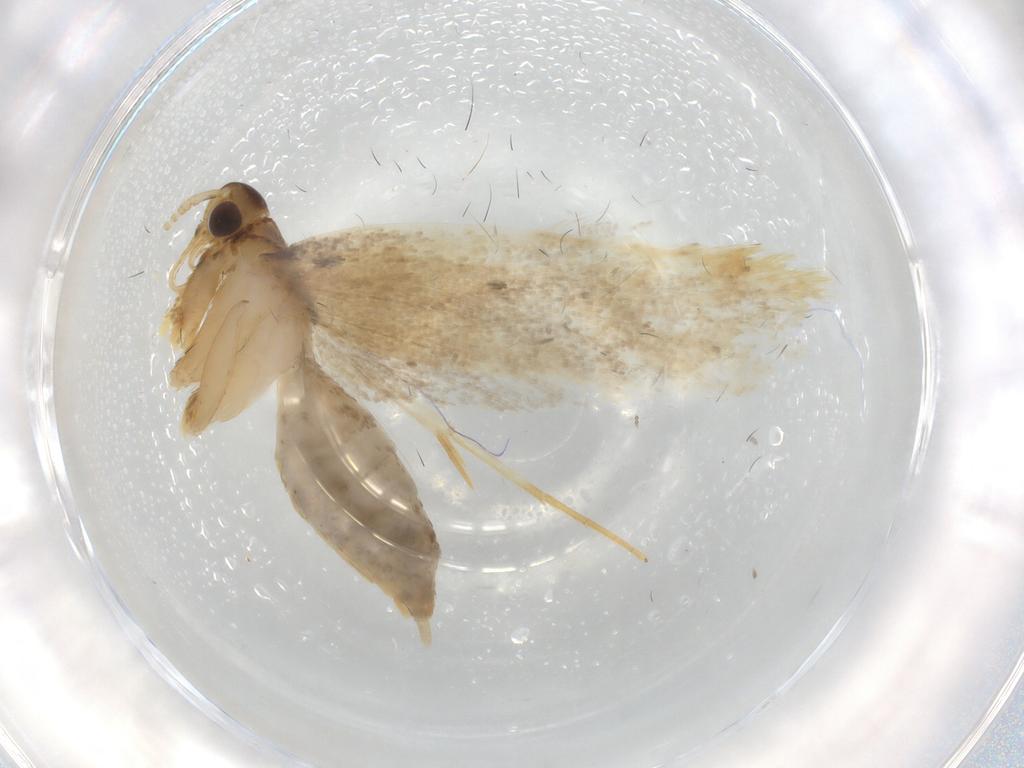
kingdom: Animalia
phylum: Arthropoda
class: Insecta
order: Lepidoptera
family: Lecithoceridae
